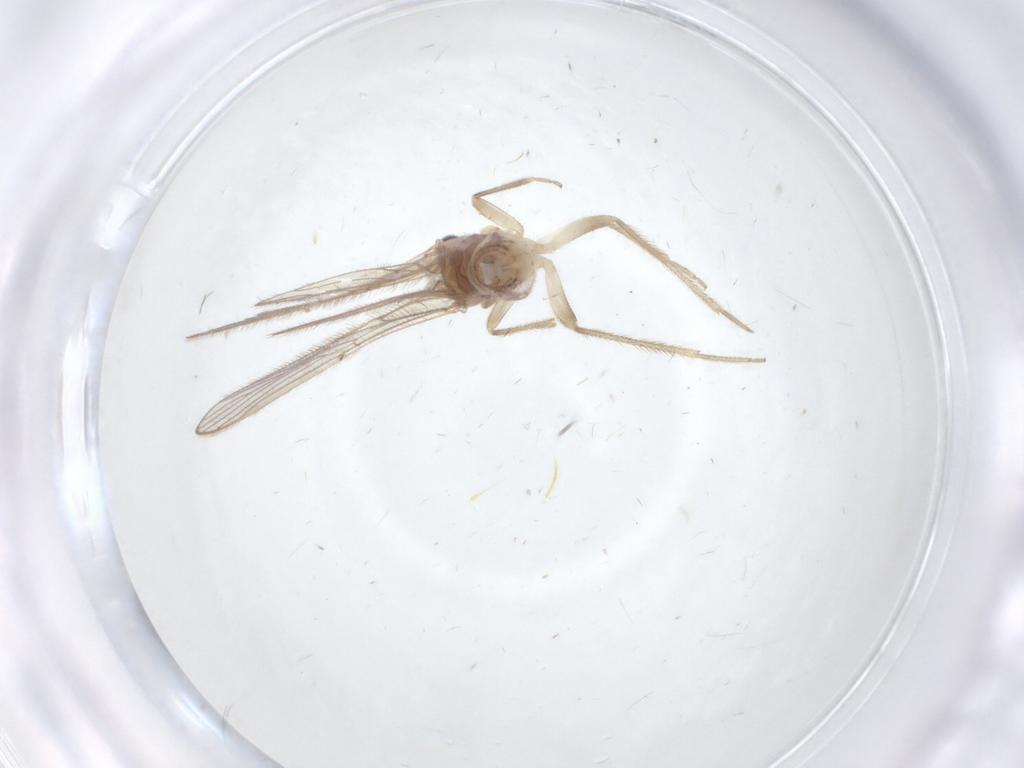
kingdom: Animalia
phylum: Arthropoda
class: Insecta
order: Psocodea
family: Cladiopsocidae
